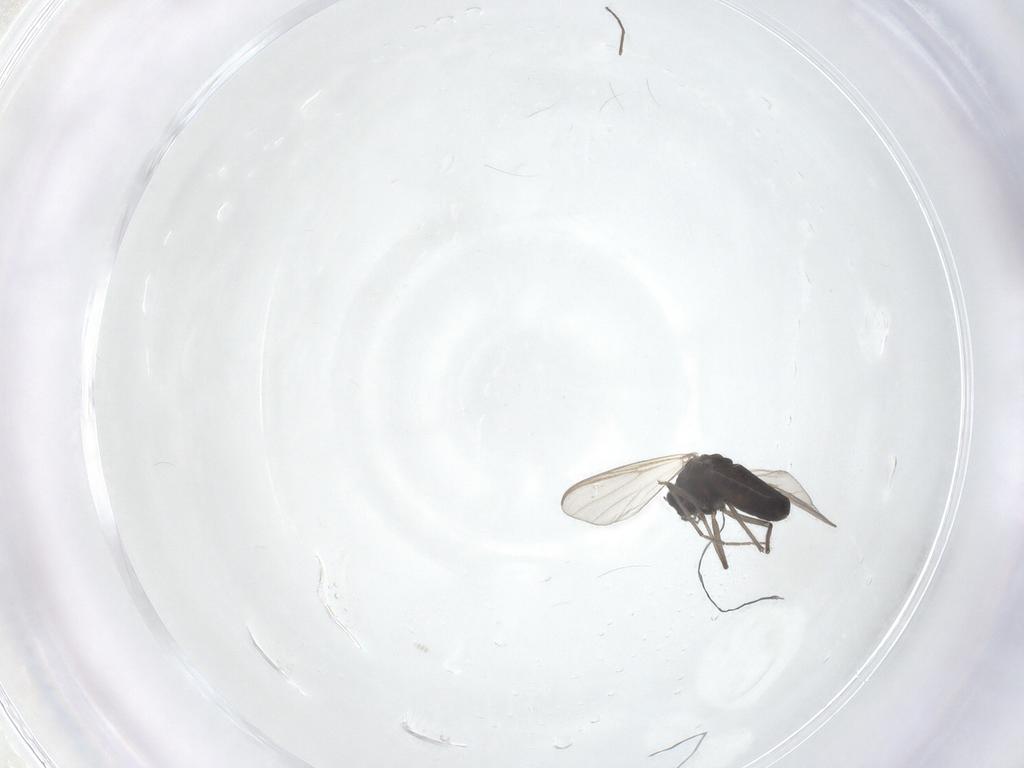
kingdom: Animalia
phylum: Arthropoda
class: Insecta
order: Diptera
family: Chironomidae
